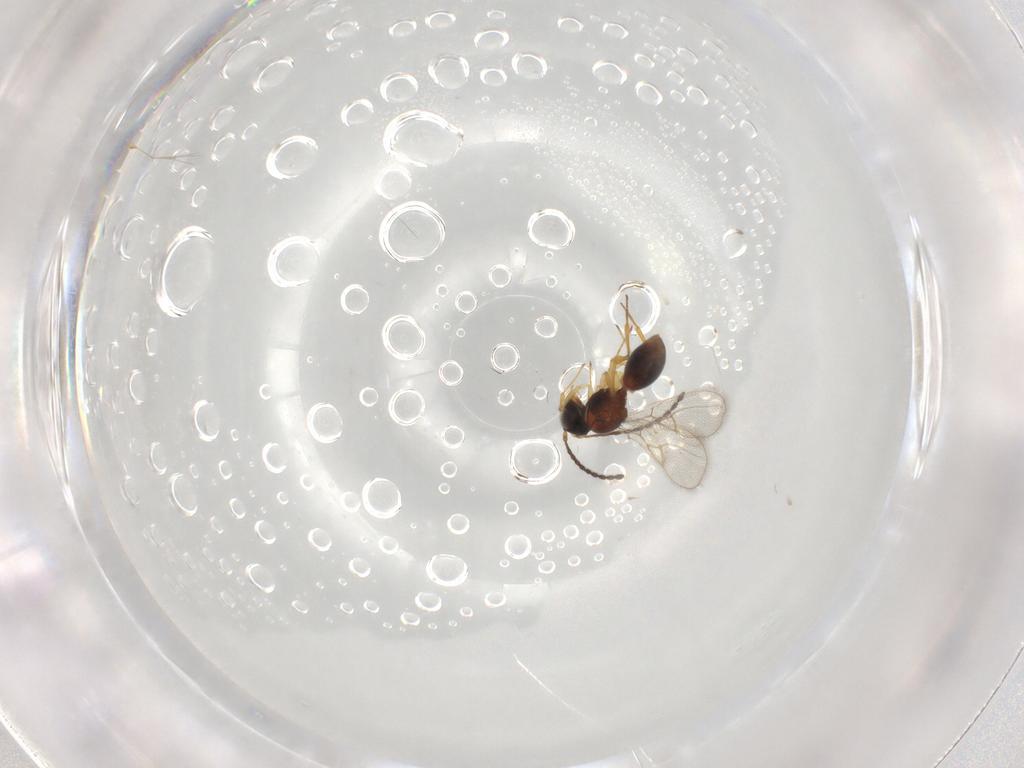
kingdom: Animalia
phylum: Arthropoda
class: Insecta
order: Hymenoptera
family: Figitidae
